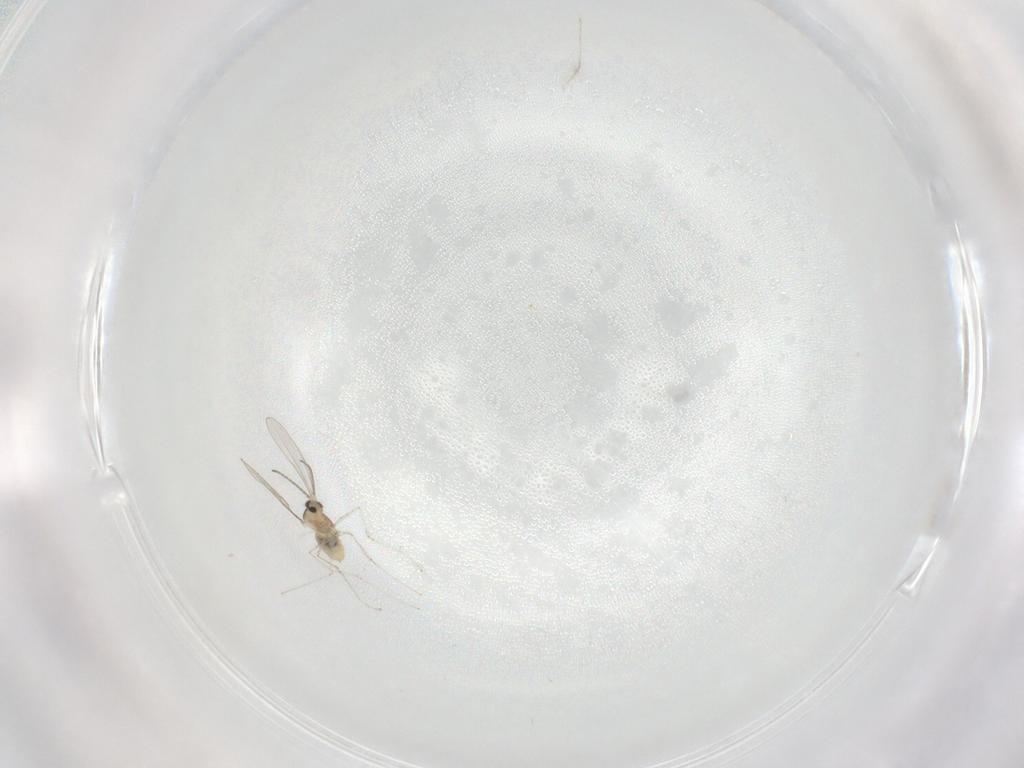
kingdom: Animalia
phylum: Arthropoda
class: Insecta
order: Diptera
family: Cecidomyiidae
